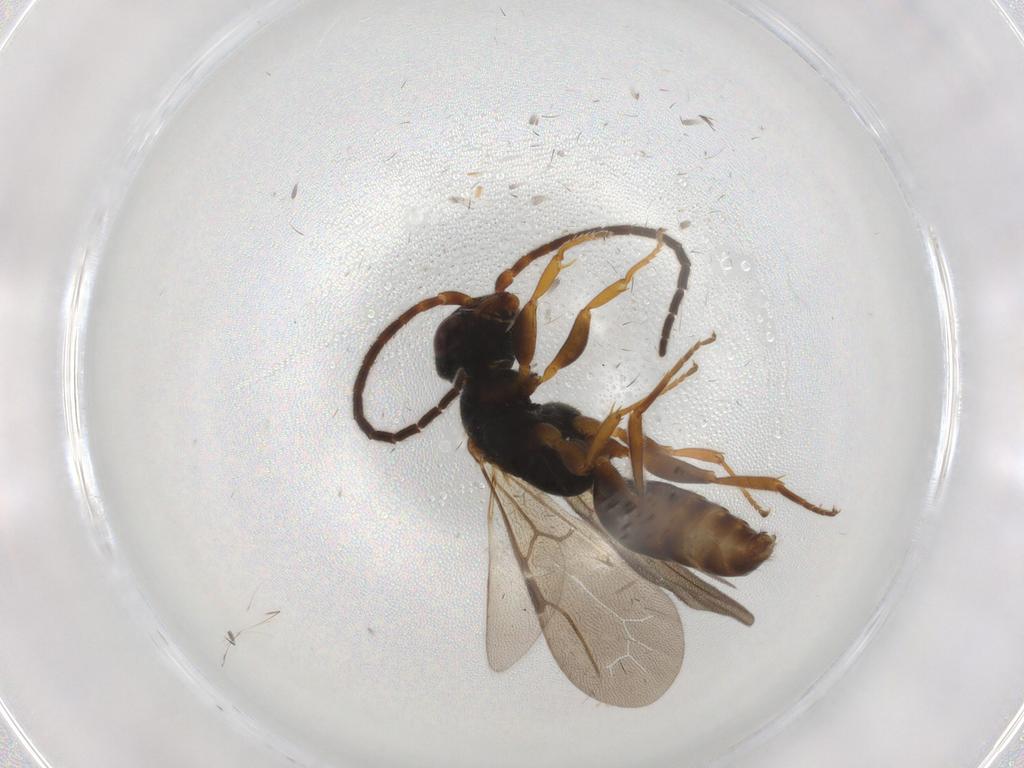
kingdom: Animalia
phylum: Arthropoda
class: Insecta
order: Hymenoptera
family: Bethylidae
